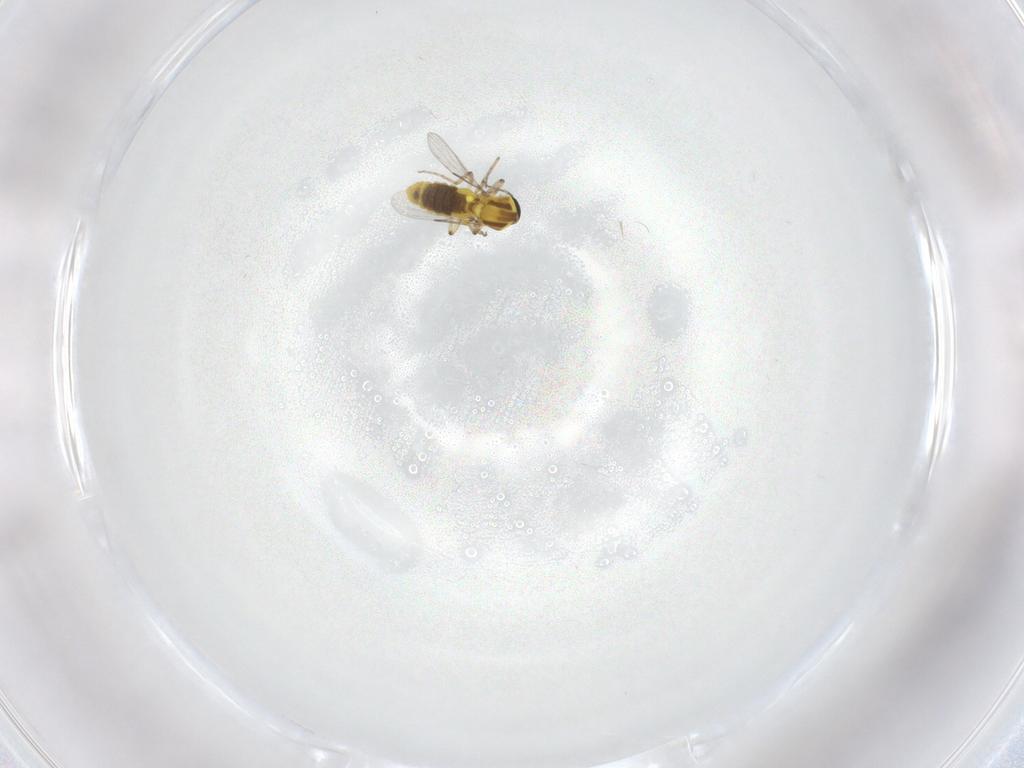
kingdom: Animalia
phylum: Arthropoda
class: Insecta
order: Diptera
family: Ceratopogonidae
